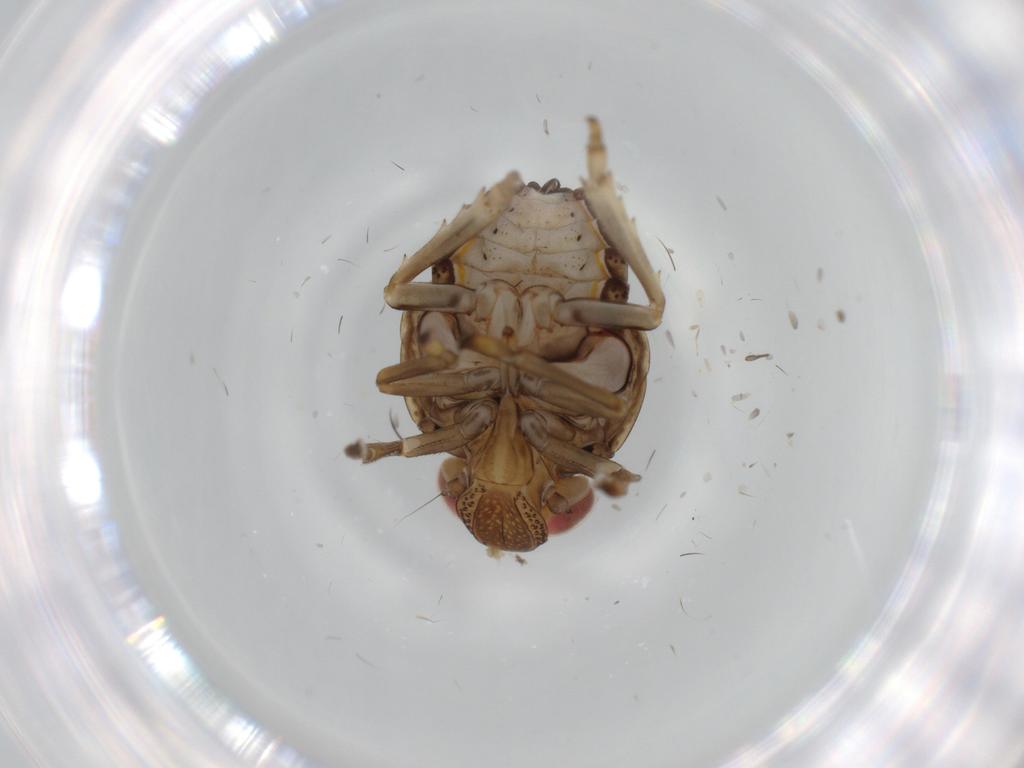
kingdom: Animalia
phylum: Arthropoda
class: Insecta
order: Hemiptera
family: Issidae
